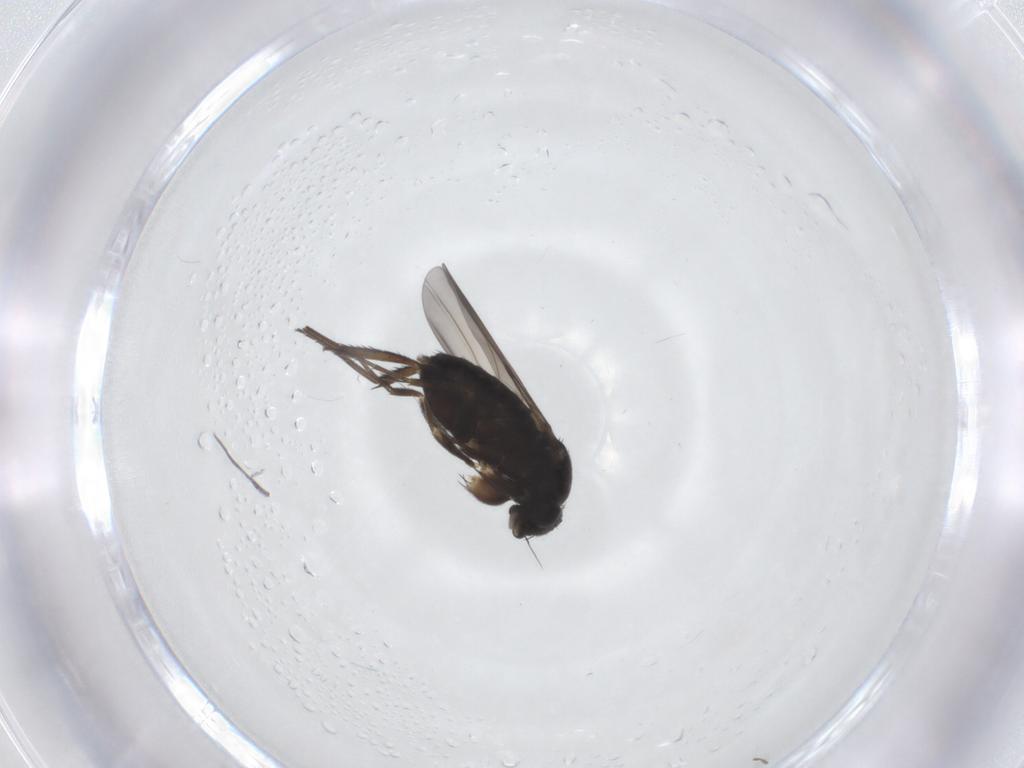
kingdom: Animalia
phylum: Arthropoda
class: Insecta
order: Diptera
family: Phoridae
